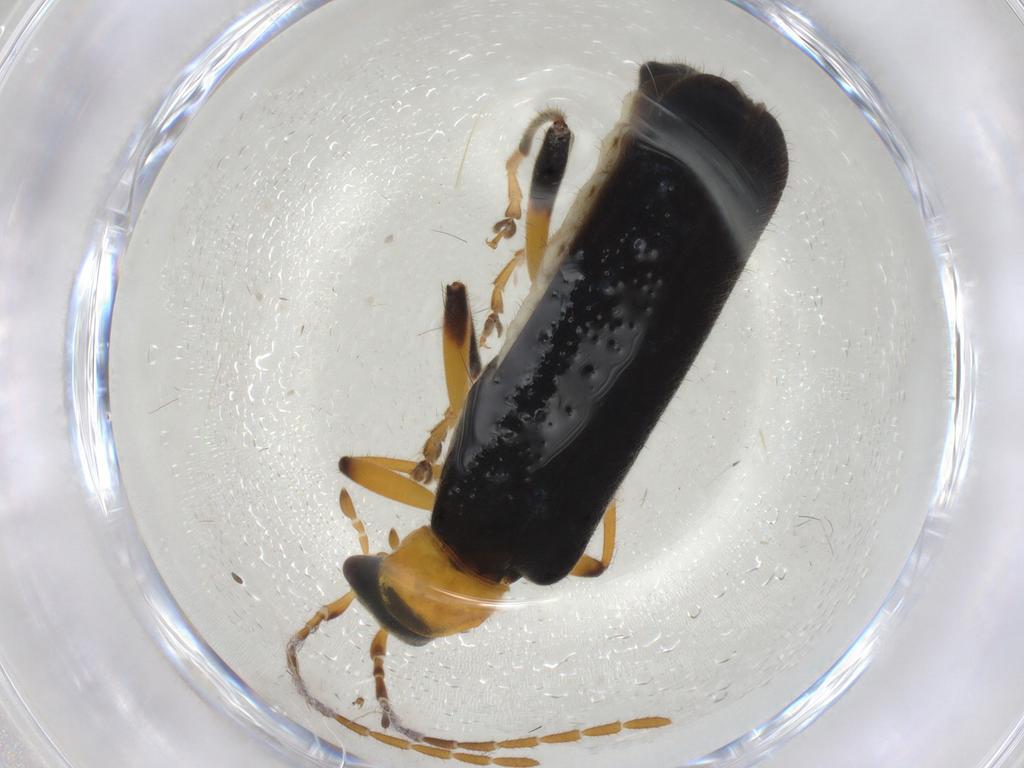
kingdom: Animalia
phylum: Arthropoda
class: Insecta
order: Coleoptera
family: Cantharidae
